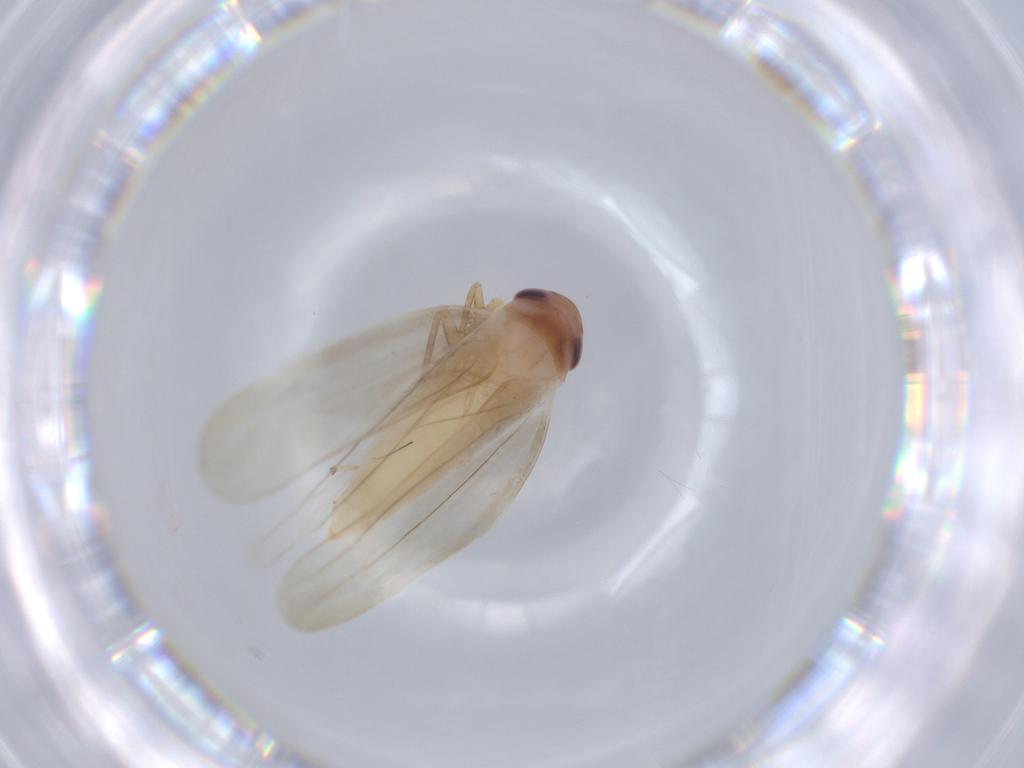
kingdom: Animalia
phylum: Arthropoda
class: Insecta
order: Hemiptera
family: Cicadellidae
